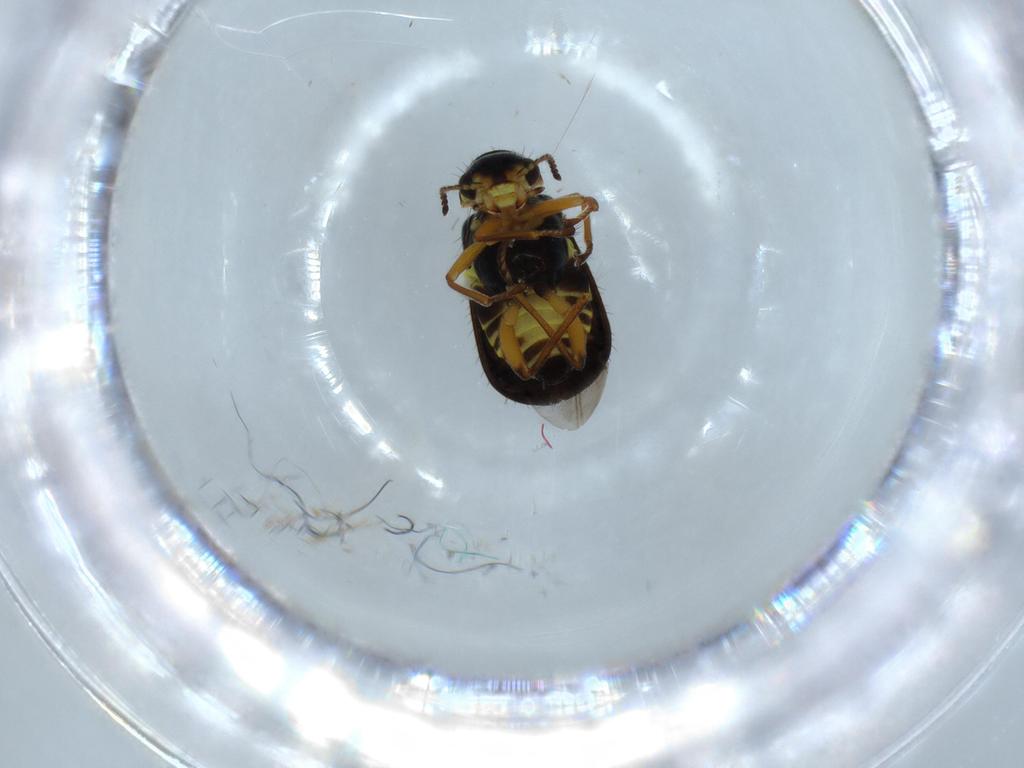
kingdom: Animalia
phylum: Arthropoda
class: Insecta
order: Coleoptera
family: Melyridae
